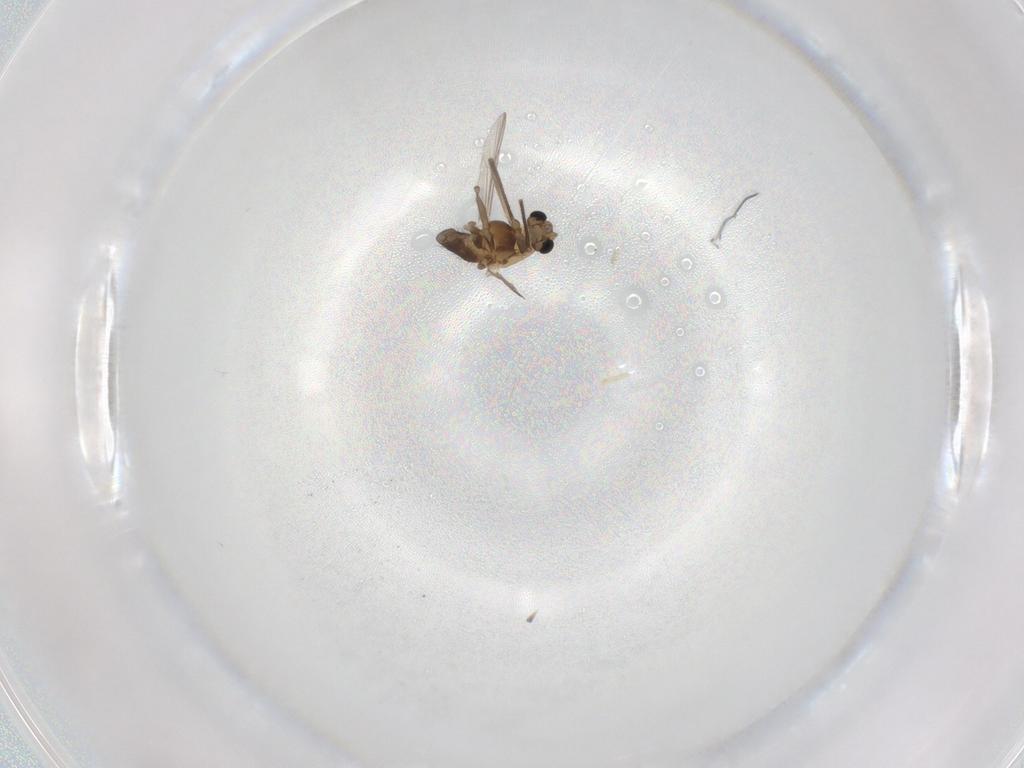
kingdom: Animalia
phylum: Arthropoda
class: Insecta
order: Diptera
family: Chironomidae
